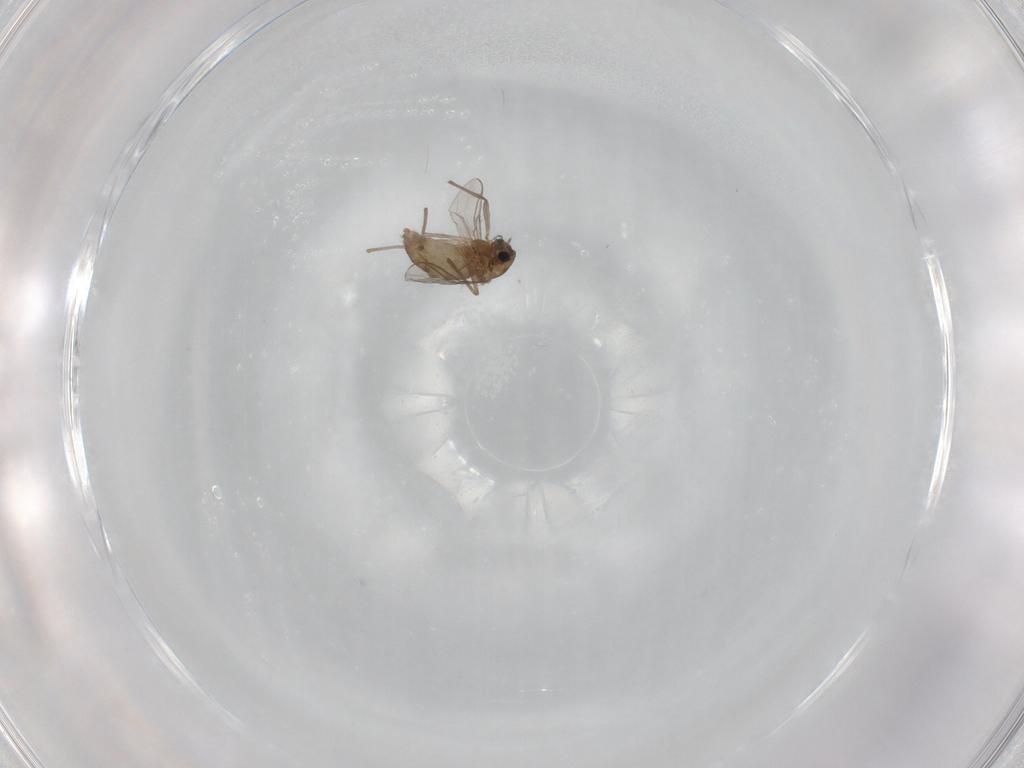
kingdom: Animalia
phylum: Arthropoda
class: Insecta
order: Diptera
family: Chironomidae
